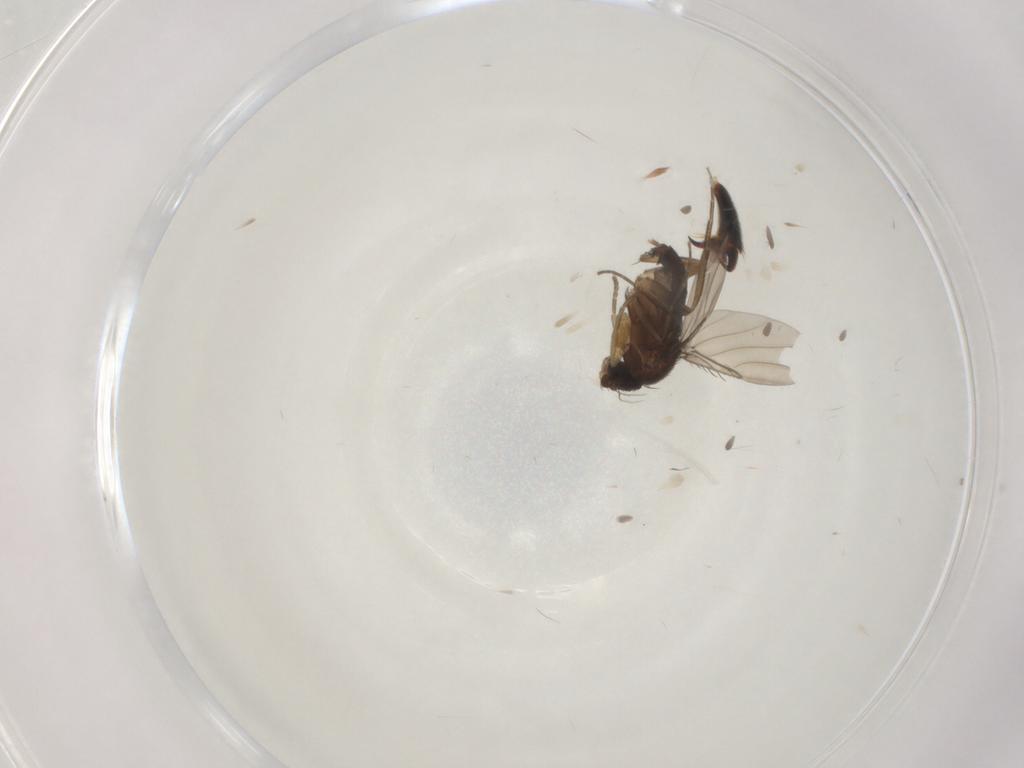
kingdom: Animalia
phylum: Arthropoda
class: Insecta
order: Diptera
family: Phoridae
